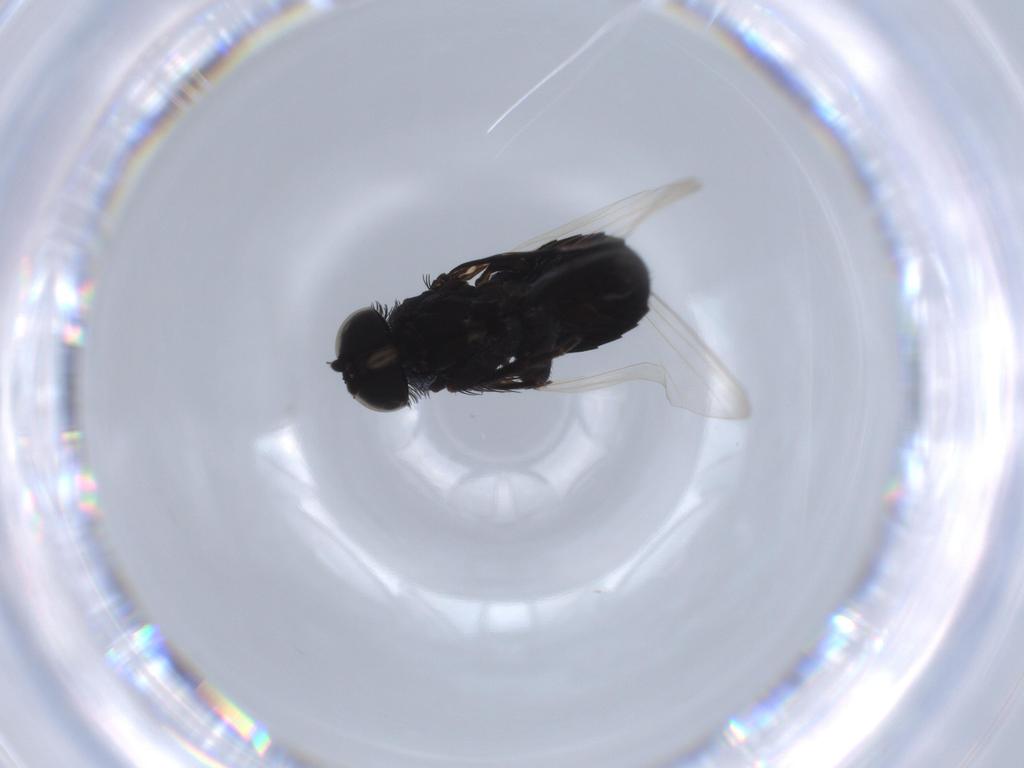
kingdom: Animalia
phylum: Arthropoda
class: Insecta
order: Diptera
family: Phoridae
